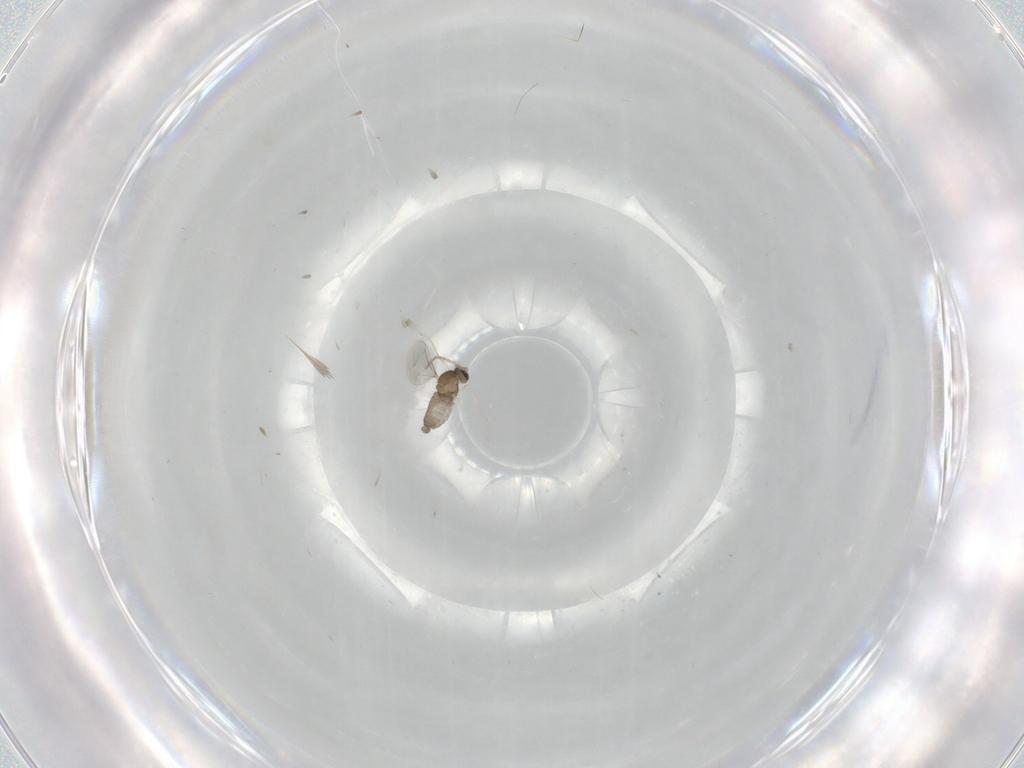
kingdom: Animalia
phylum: Arthropoda
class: Insecta
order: Diptera
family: Cecidomyiidae
